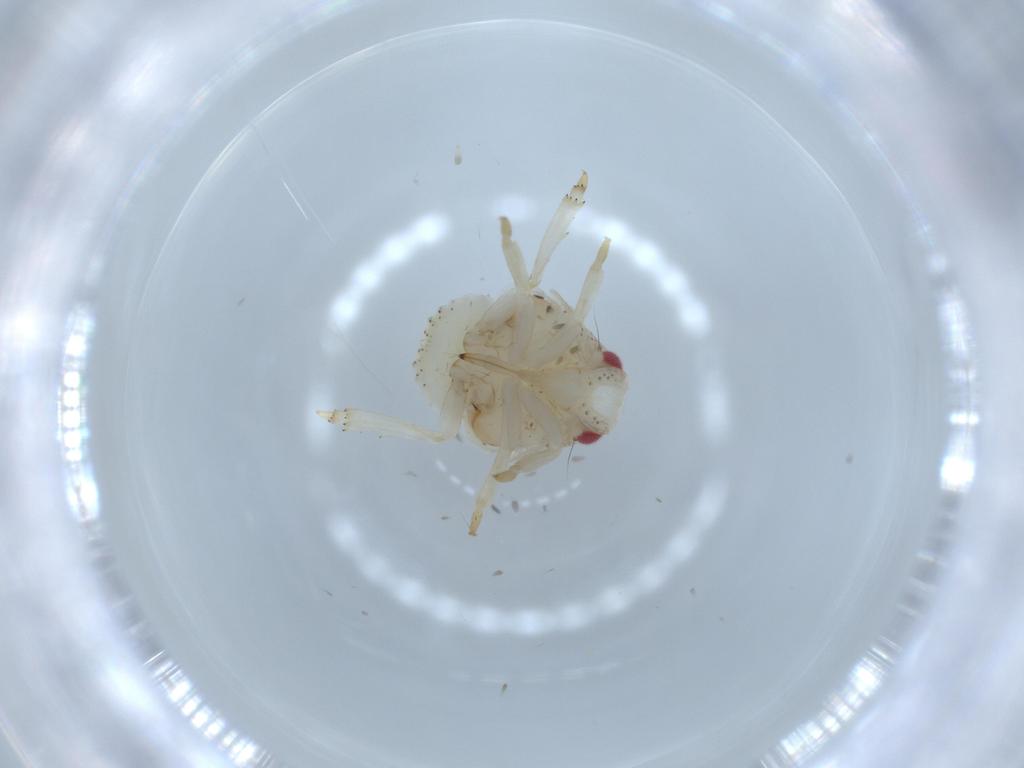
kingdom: Animalia
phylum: Arthropoda
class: Insecta
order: Hemiptera
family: Acanaloniidae
